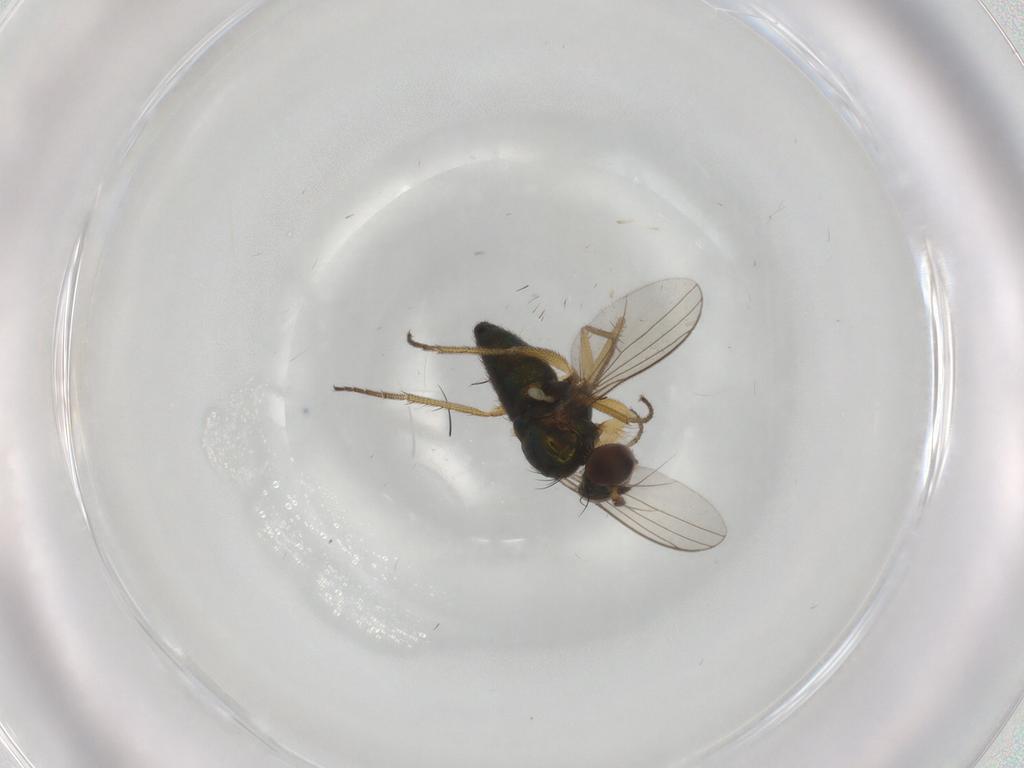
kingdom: Animalia
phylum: Arthropoda
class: Insecta
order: Diptera
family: Dolichopodidae
